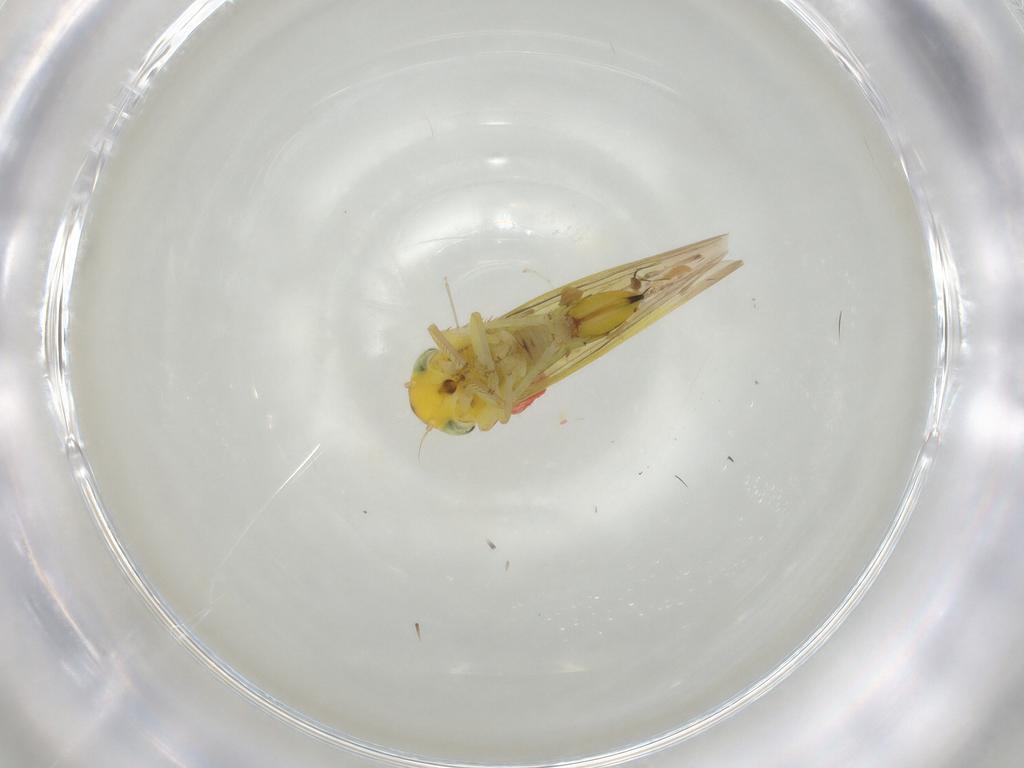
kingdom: Animalia
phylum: Arthropoda
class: Insecta
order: Hemiptera
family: Cicadellidae
